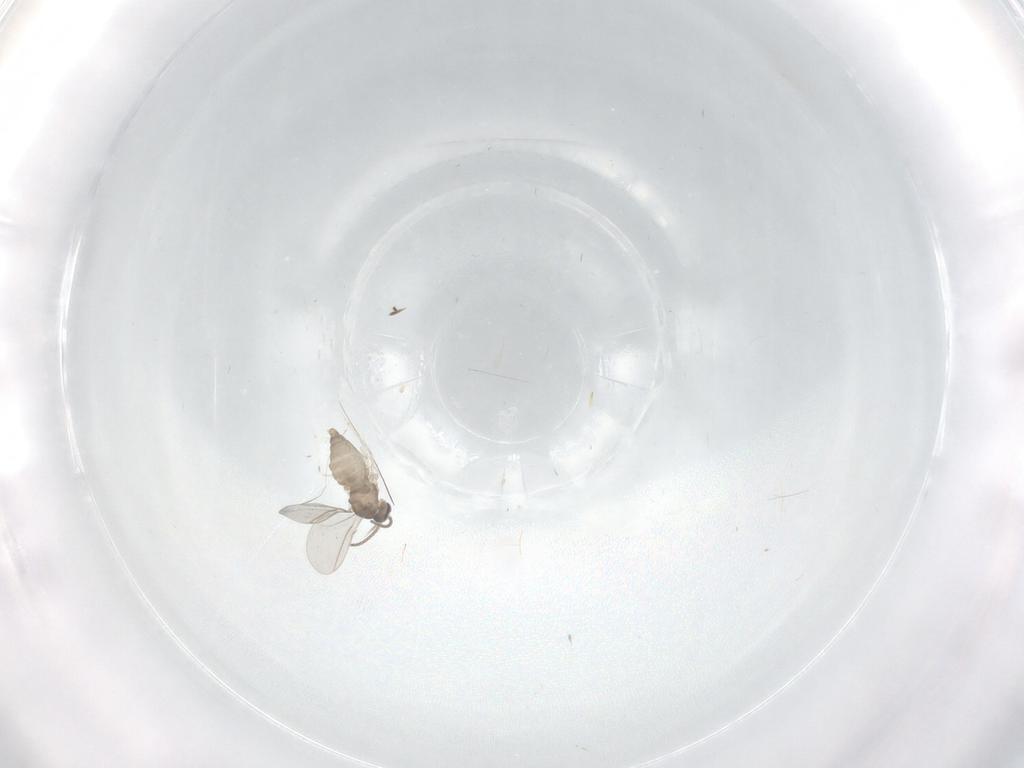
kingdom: Animalia
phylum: Arthropoda
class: Insecta
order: Diptera
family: Cecidomyiidae
